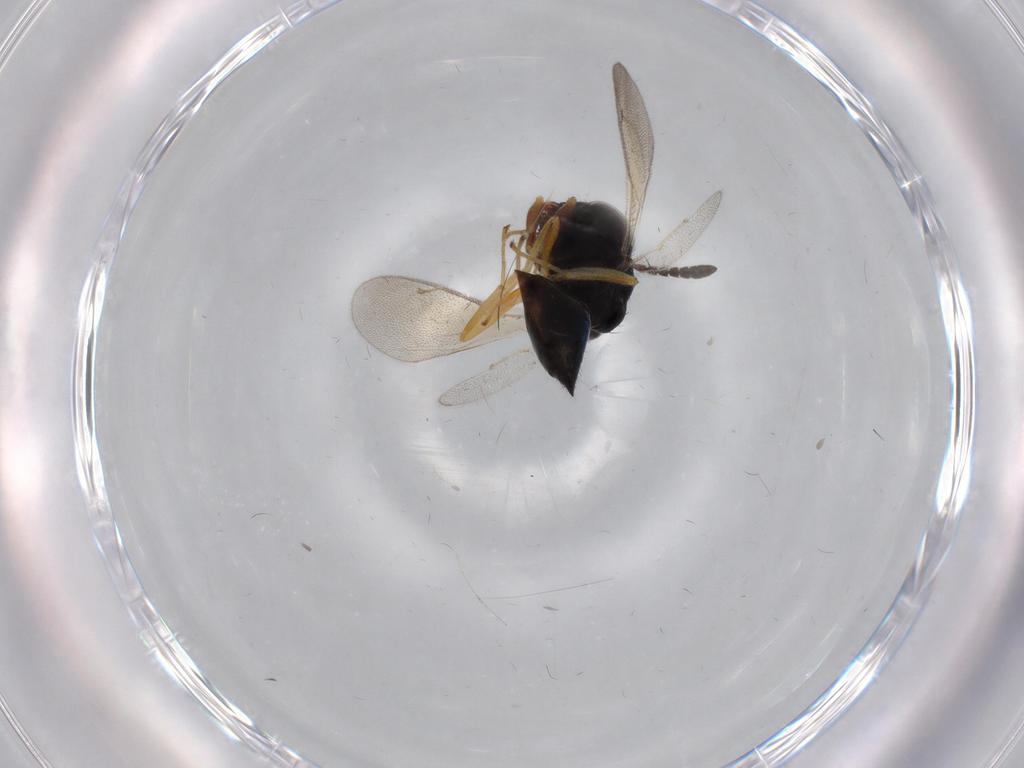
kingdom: Animalia
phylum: Arthropoda
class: Insecta
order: Hymenoptera
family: Pteromalidae
